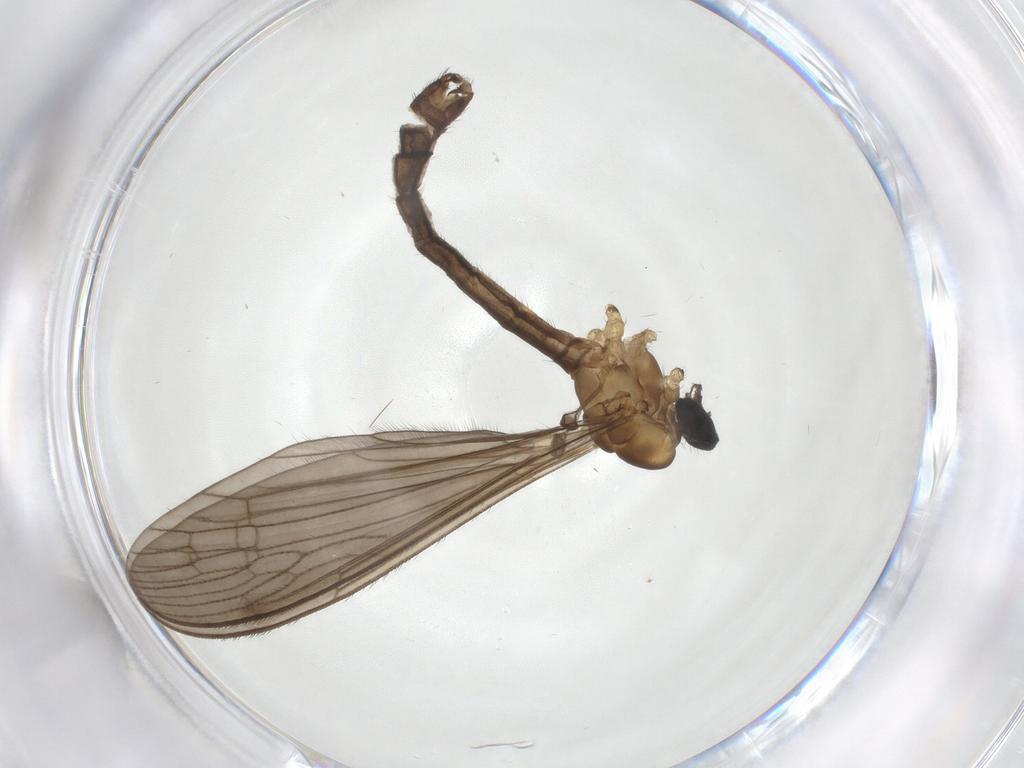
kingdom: Animalia
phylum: Arthropoda
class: Insecta
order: Diptera
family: Limoniidae
